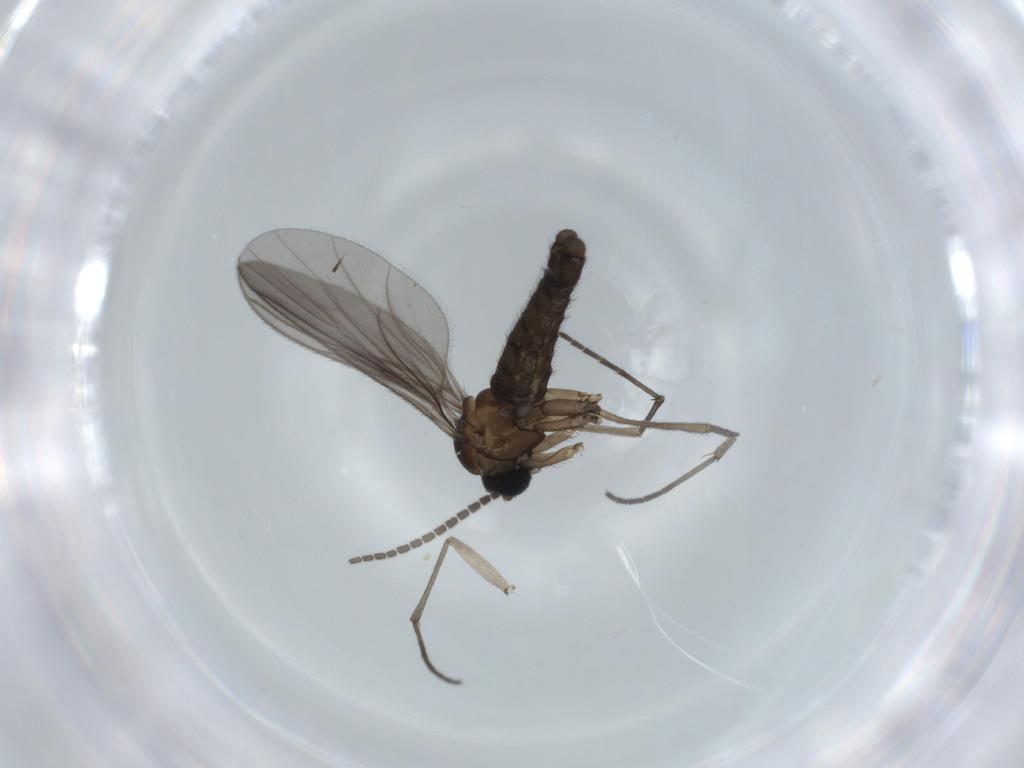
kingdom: Animalia
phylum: Arthropoda
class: Insecta
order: Diptera
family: Sciaridae
